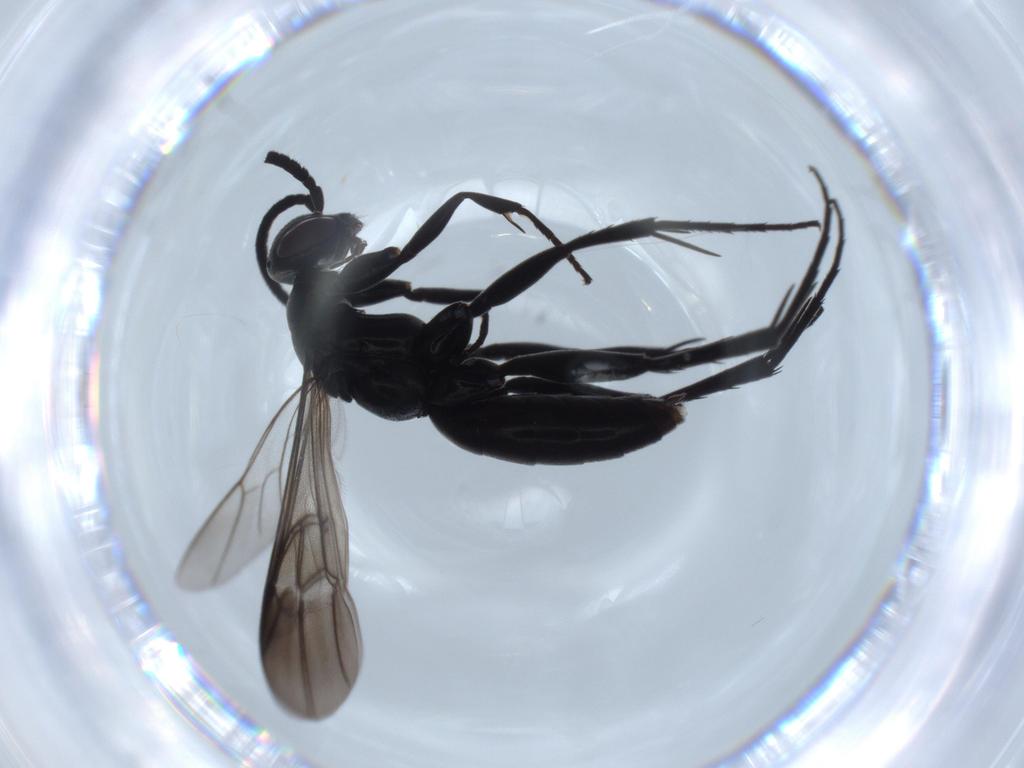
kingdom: Animalia
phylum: Arthropoda
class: Insecta
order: Hymenoptera
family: Pompilidae
